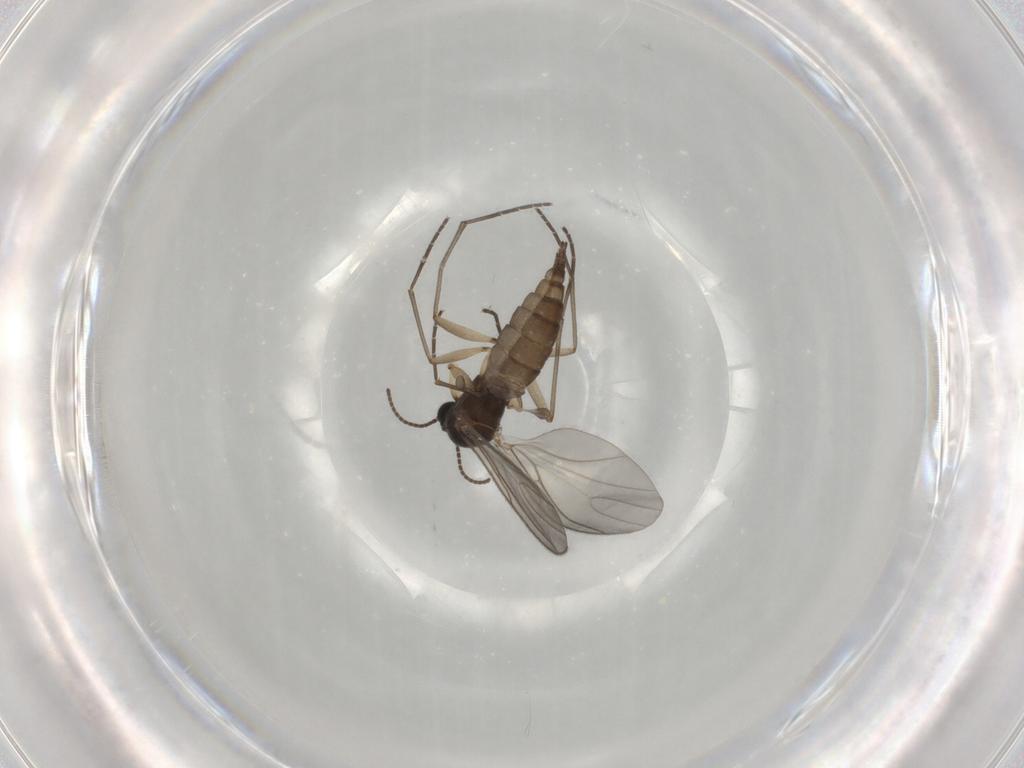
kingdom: Animalia
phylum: Arthropoda
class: Insecta
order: Diptera
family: Sciaridae
